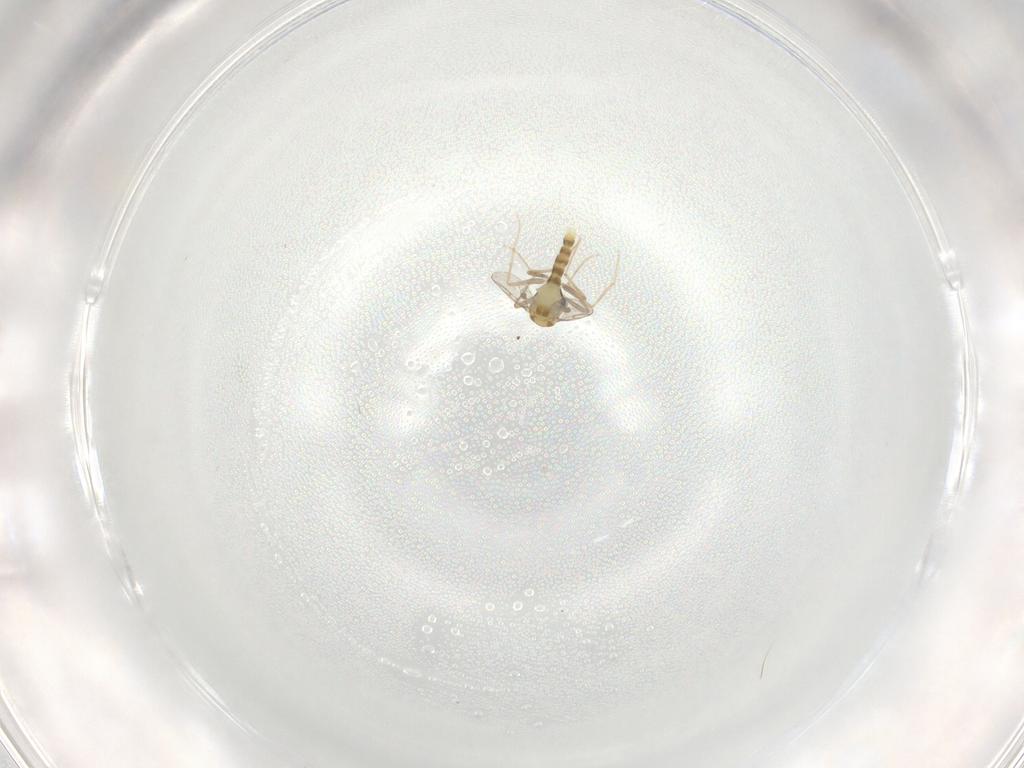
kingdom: Animalia
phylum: Arthropoda
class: Insecta
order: Diptera
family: Chironomidae
